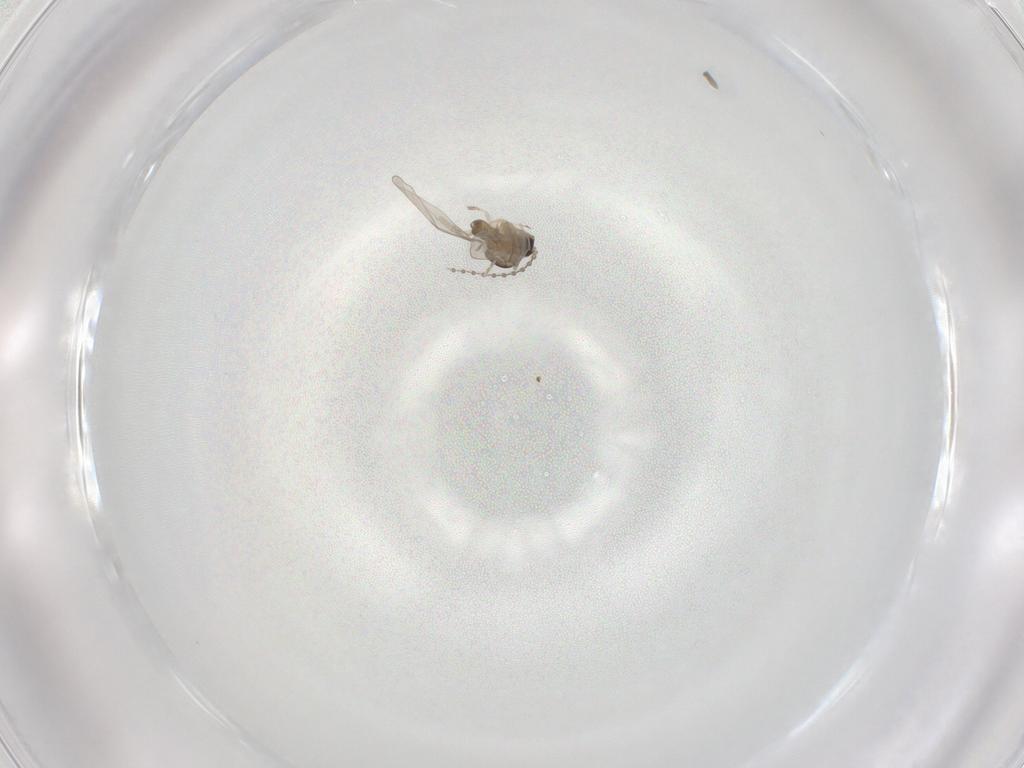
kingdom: Animalia
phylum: Arthropoda
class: Insecta
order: Diptera
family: Cecidomyiidae
